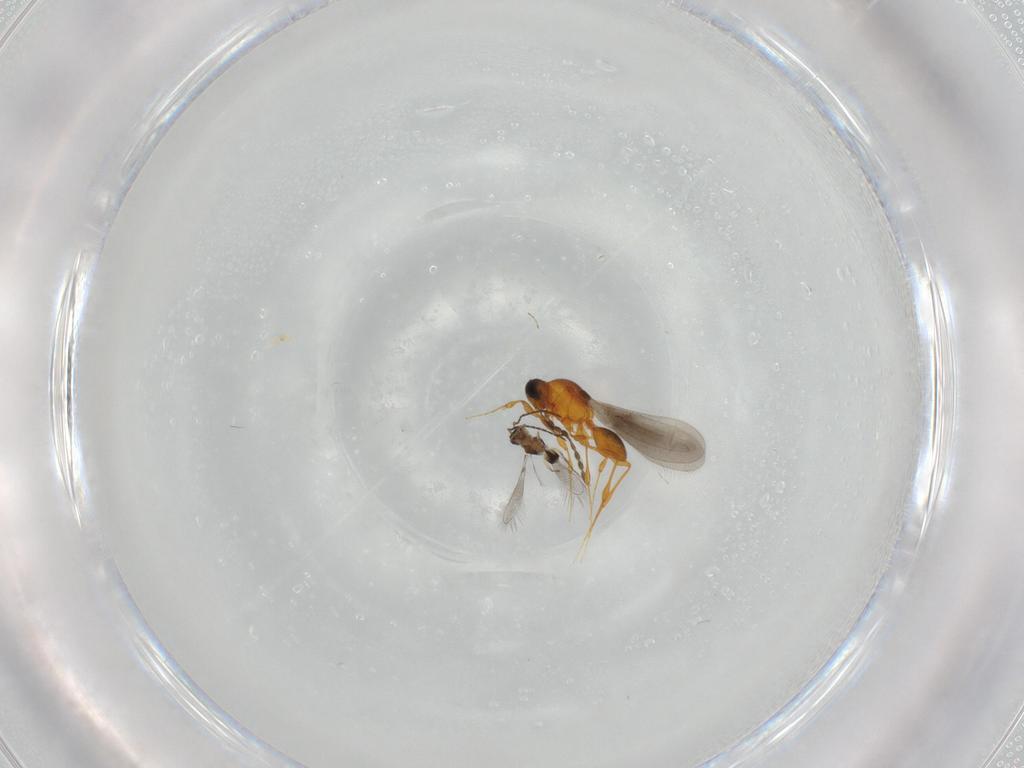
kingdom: Animalia
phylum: Arthropoda
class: Insecta
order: Hymenoptera
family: Platygastridae
